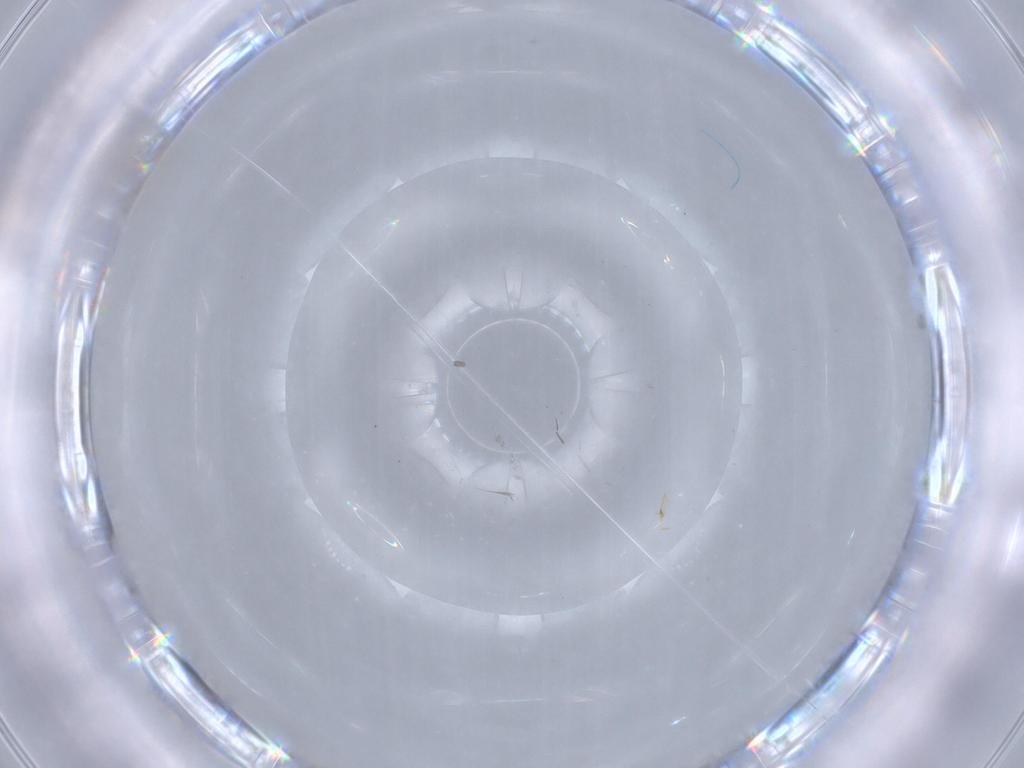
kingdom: Animalia
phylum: Arthropoda
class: Insecta
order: Diptera
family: Cecidomyiidae
